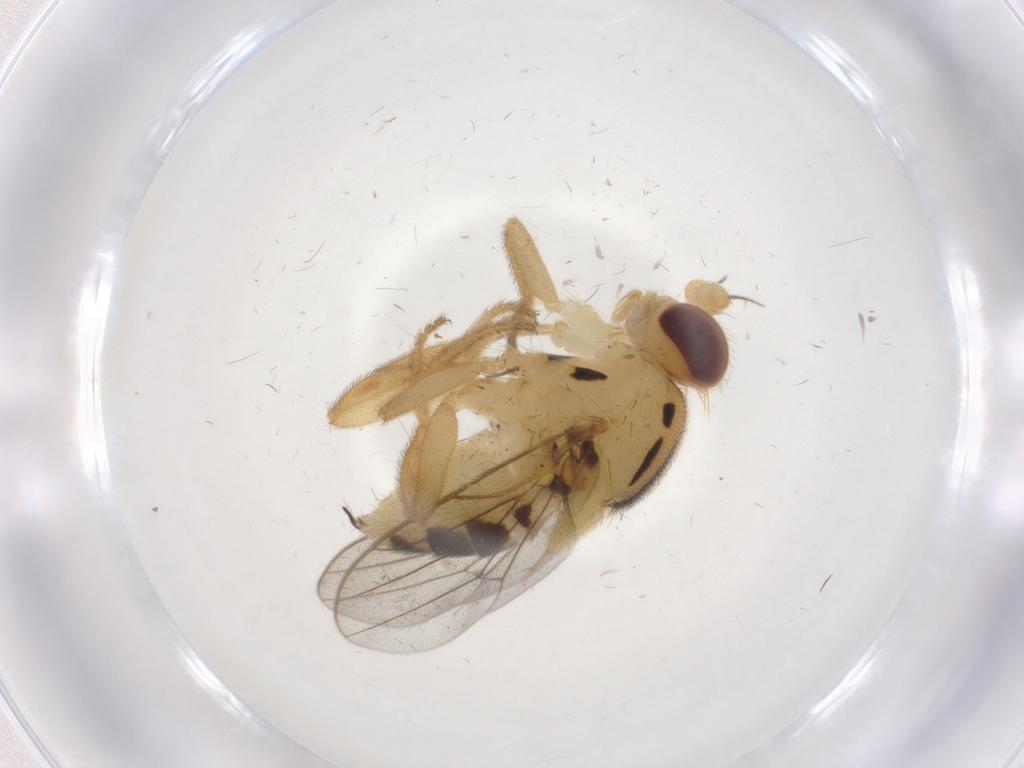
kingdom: Animalia
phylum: Arthropoda
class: Insecta
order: Diptera
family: Chloropidae
